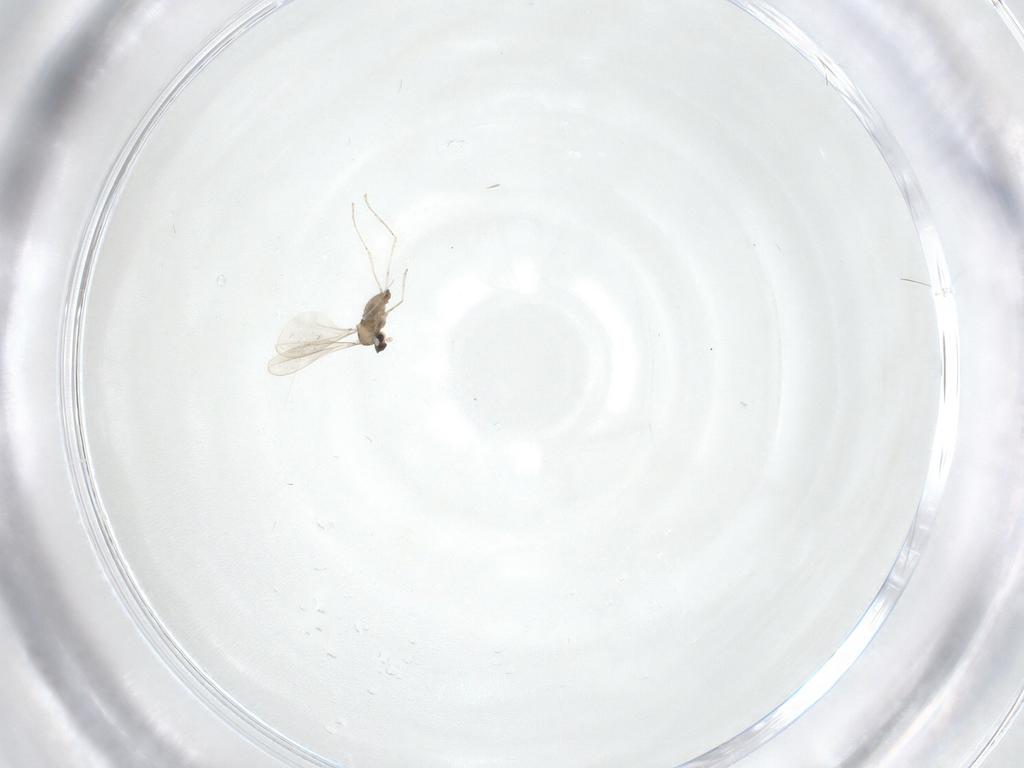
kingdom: Animalia
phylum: Arthropoda
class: Insecta
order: Diptera
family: Cecidomyiidae
